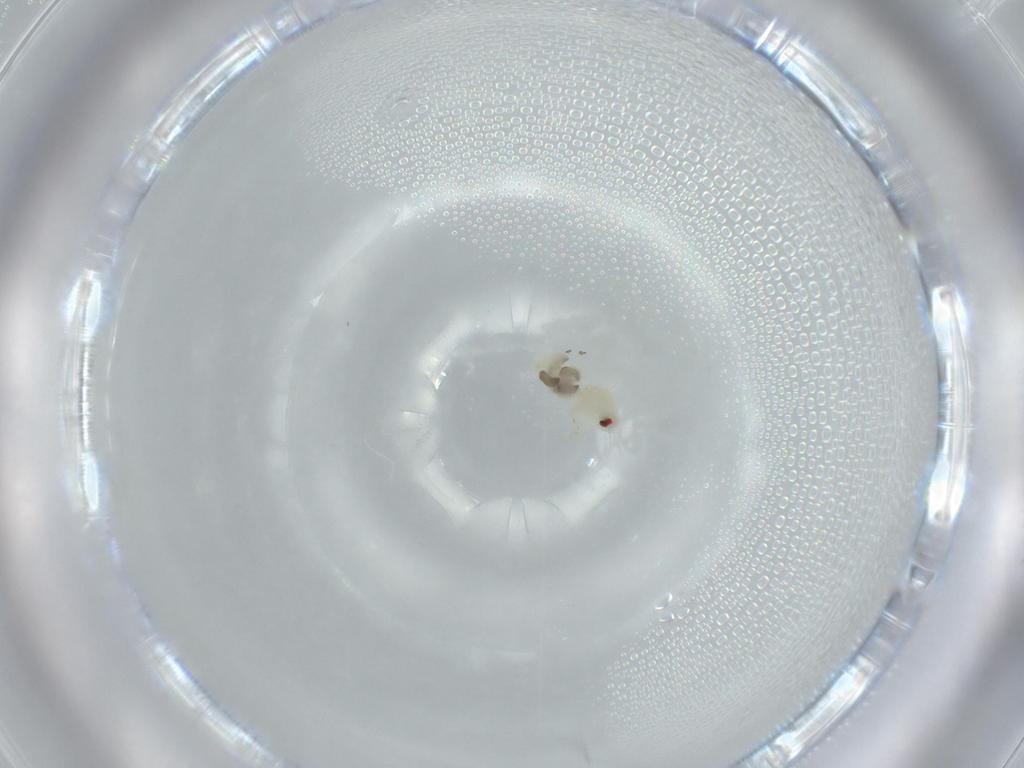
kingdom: Animalia
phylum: Arthropoda
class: Insecta
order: Hemiptera
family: Aleyrodidae
